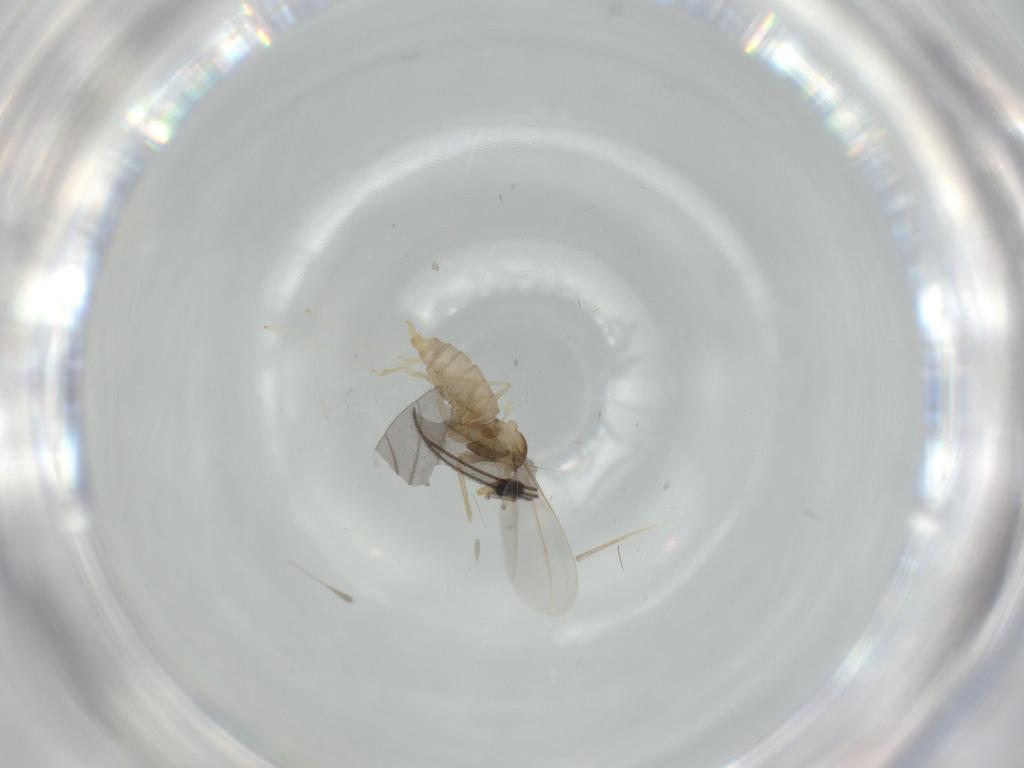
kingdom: Animalia
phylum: Arthropoda
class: Insecta
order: Diptera
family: Cecidomyiidae
